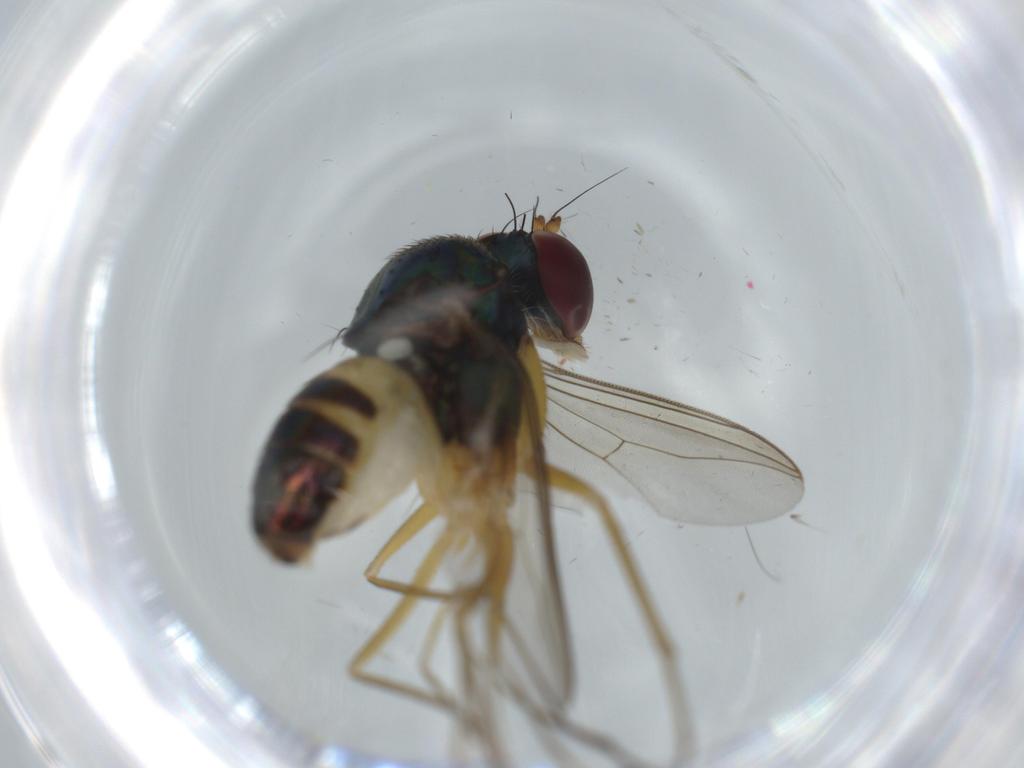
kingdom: Animalia
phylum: Arthropoda
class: Insecta
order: Diptera
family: Dolichopodidae
